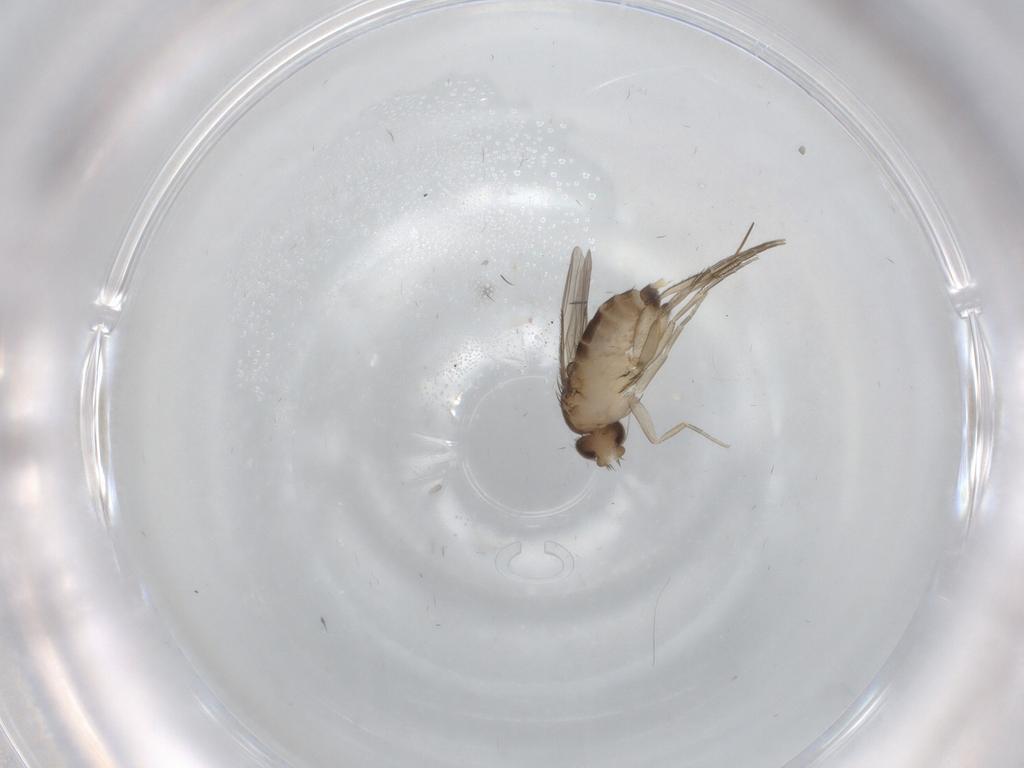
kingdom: Animalia
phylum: Arthropoda
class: Insecta
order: Diptera
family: Phoridae
